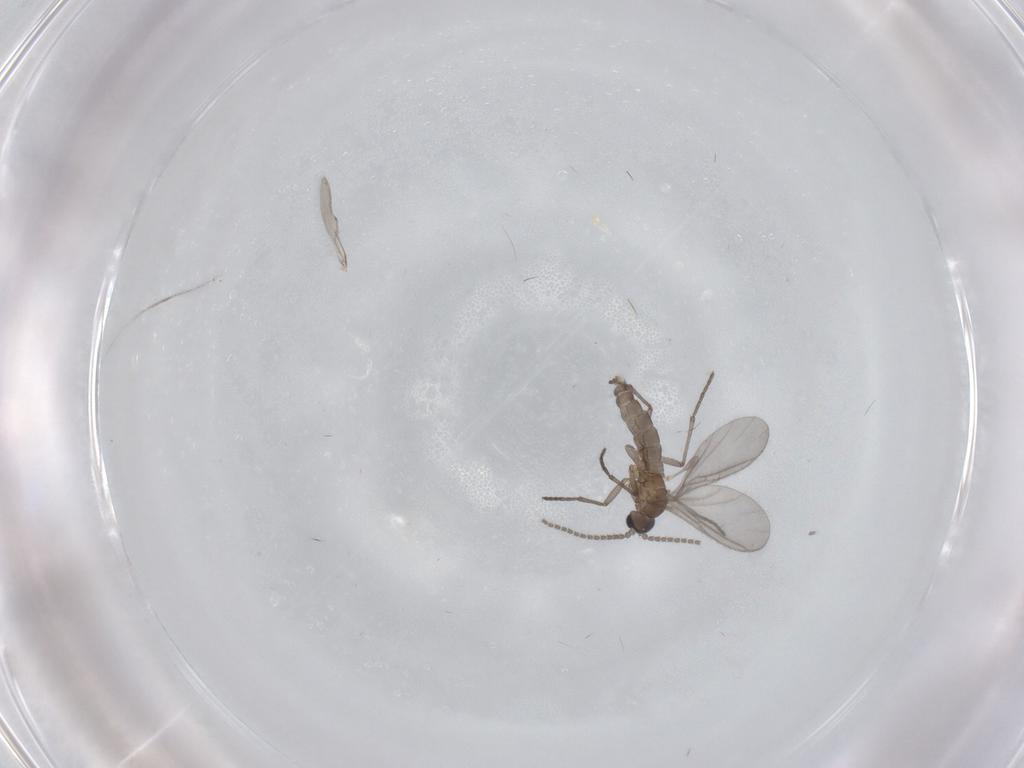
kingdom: Animalia
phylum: Arthropoda
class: Insecta
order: Diptera
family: Sciaridae
